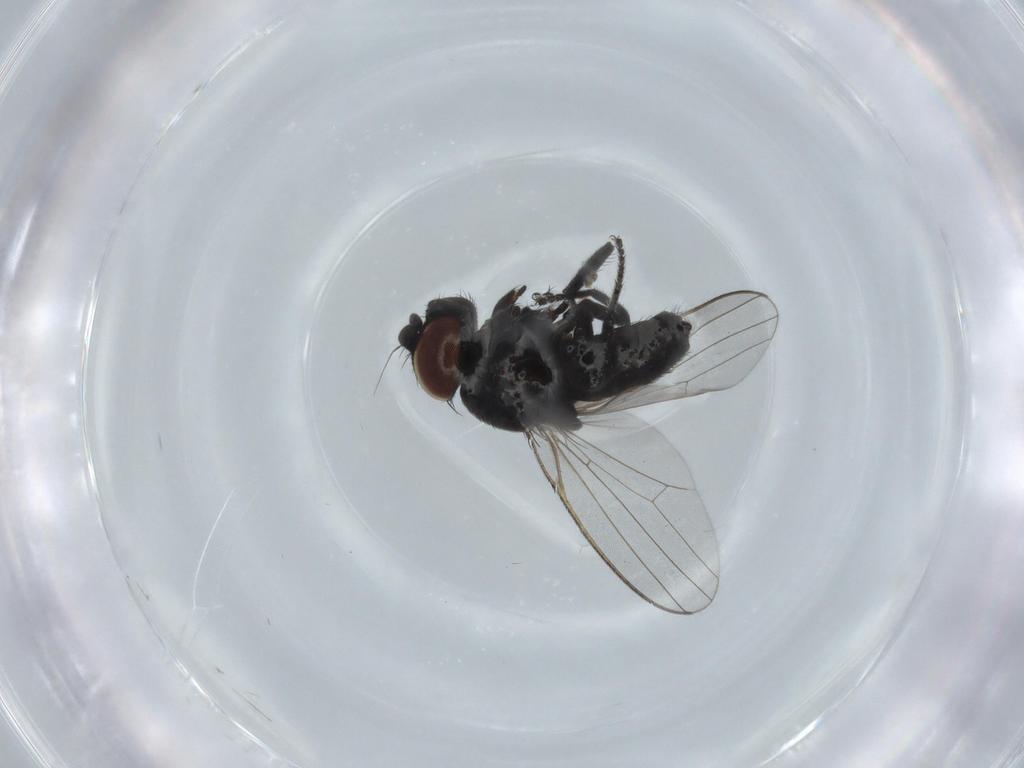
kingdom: Animalia
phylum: Arthropoda
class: Insecta
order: Diptera
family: Milichiidae
